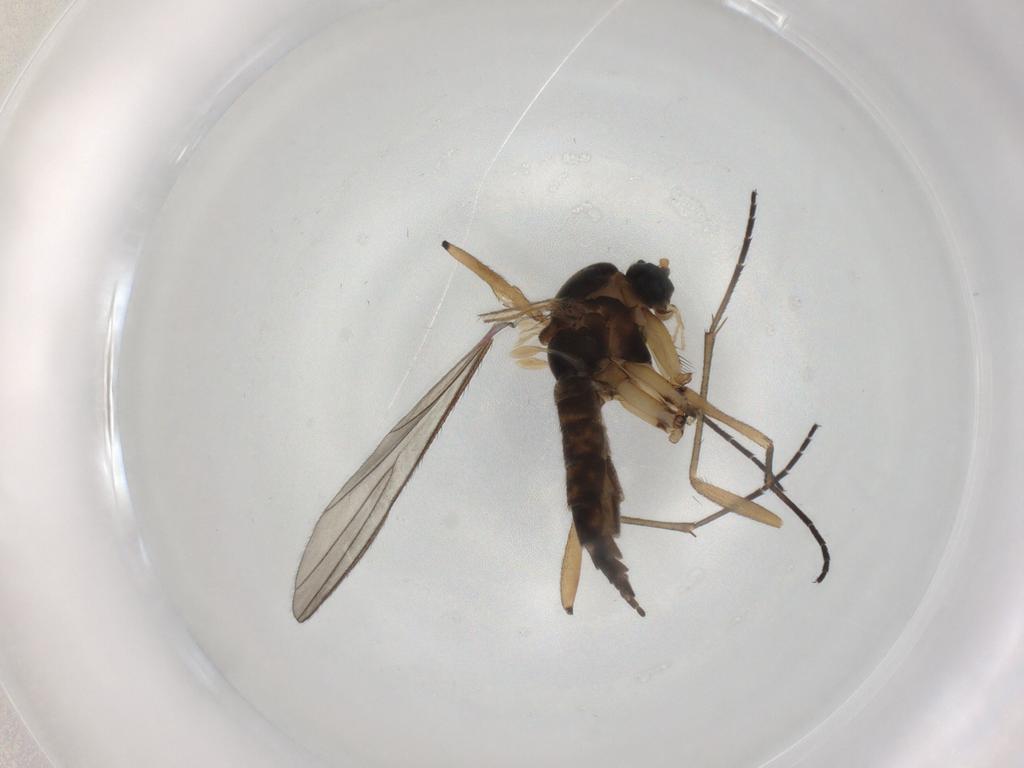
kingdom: Animalia
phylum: Arthropoda
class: Insecta
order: Diptera
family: Sciaridae
